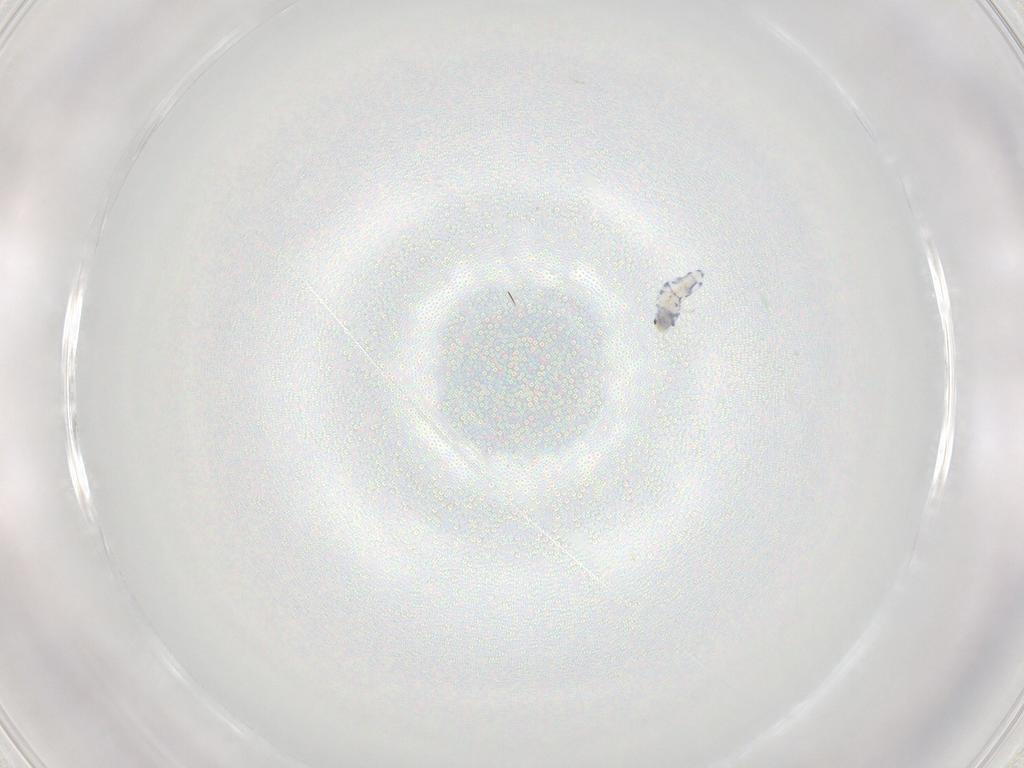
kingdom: Animalia
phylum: Arthropoda
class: Collembola
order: Entomobryomorpha
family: Entomobryidae
